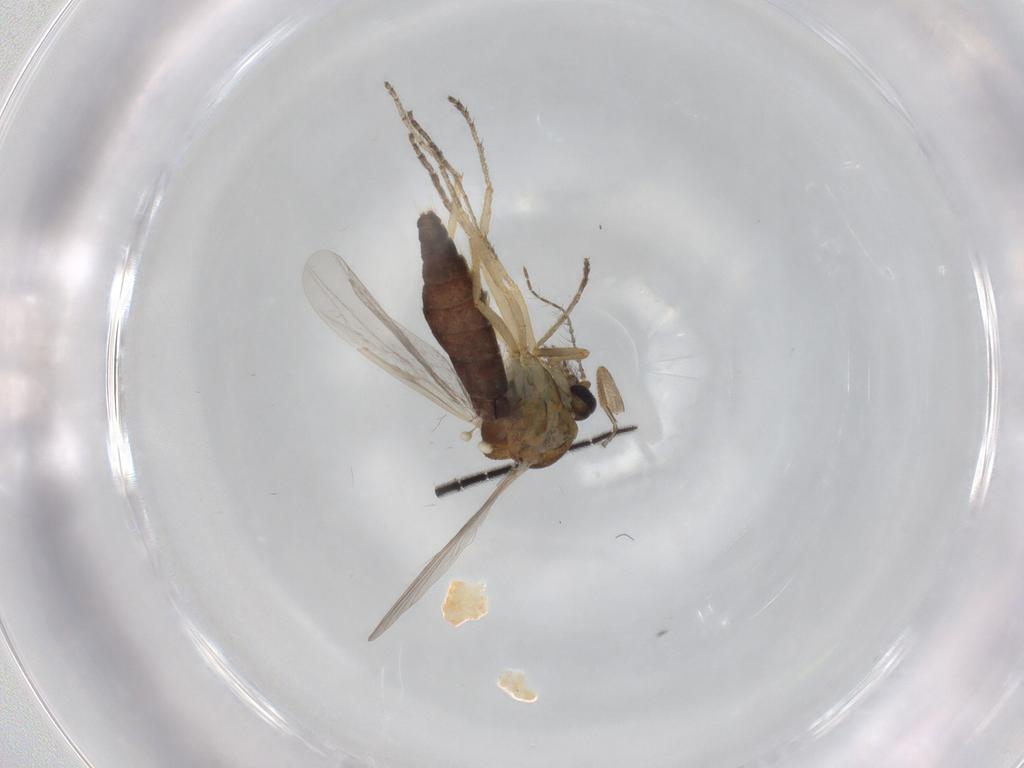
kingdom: Animalia
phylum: Arthropoda
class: Insecta
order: Diptera
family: Ceratopogonidae
